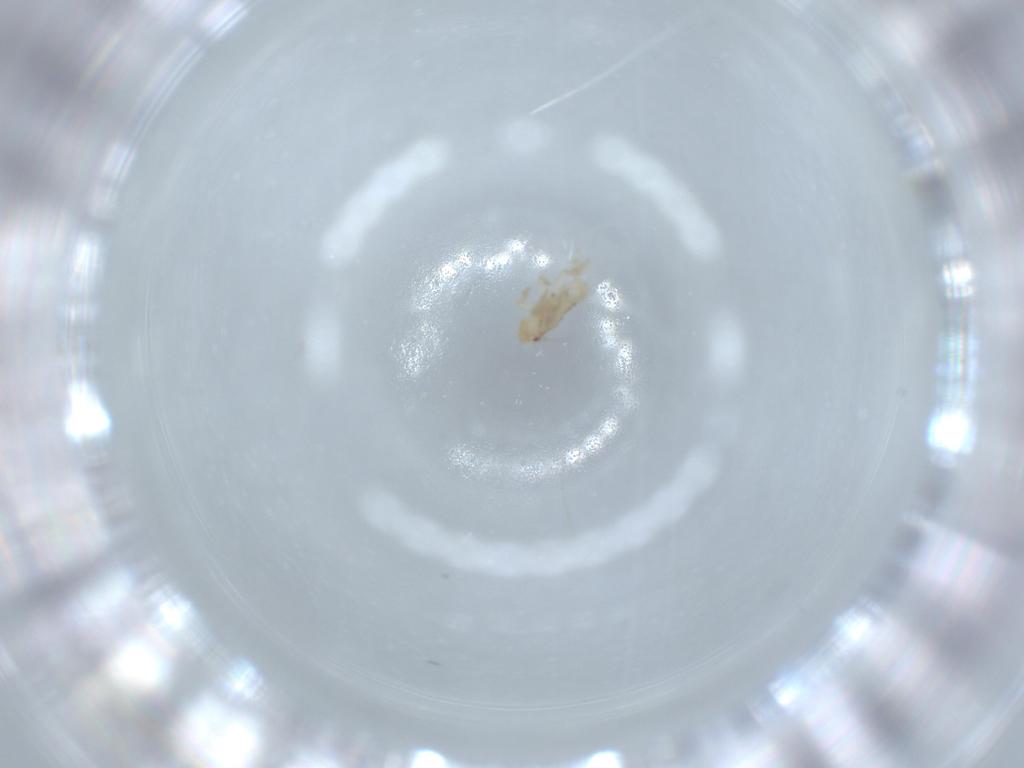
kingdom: Animalia
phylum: Arthropoda
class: Insecta
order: Hemiptera
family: Delphacidae
